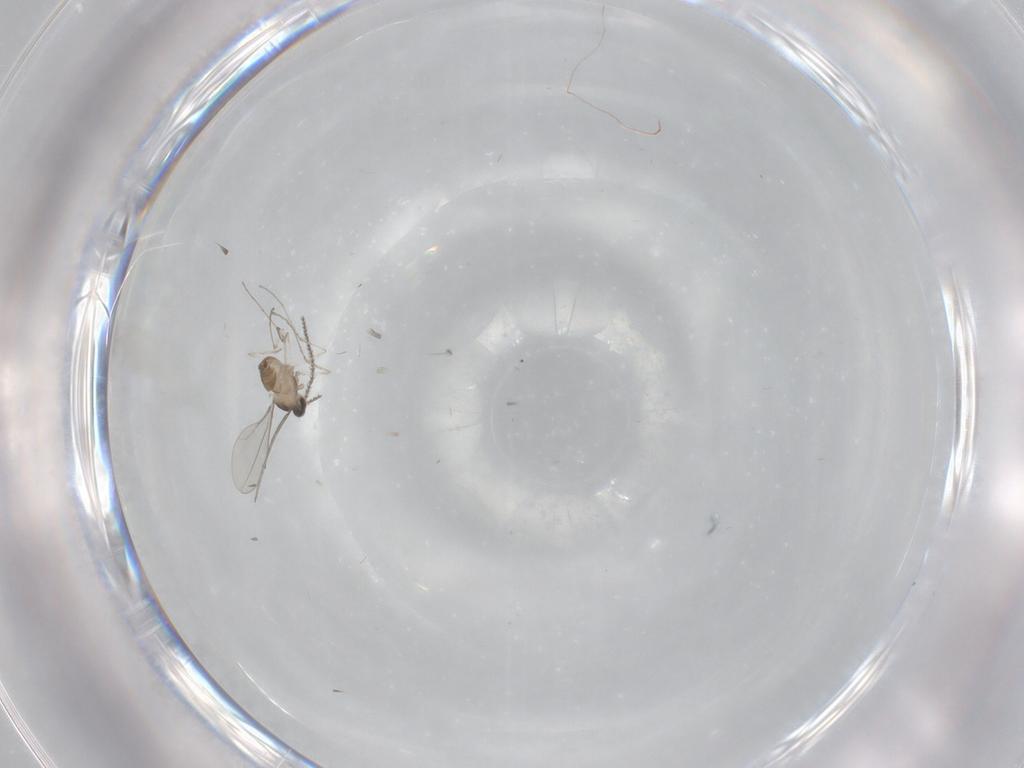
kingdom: Animalia
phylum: Arthropoda
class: Insecta
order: Diptera
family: Cecidomyiidae
